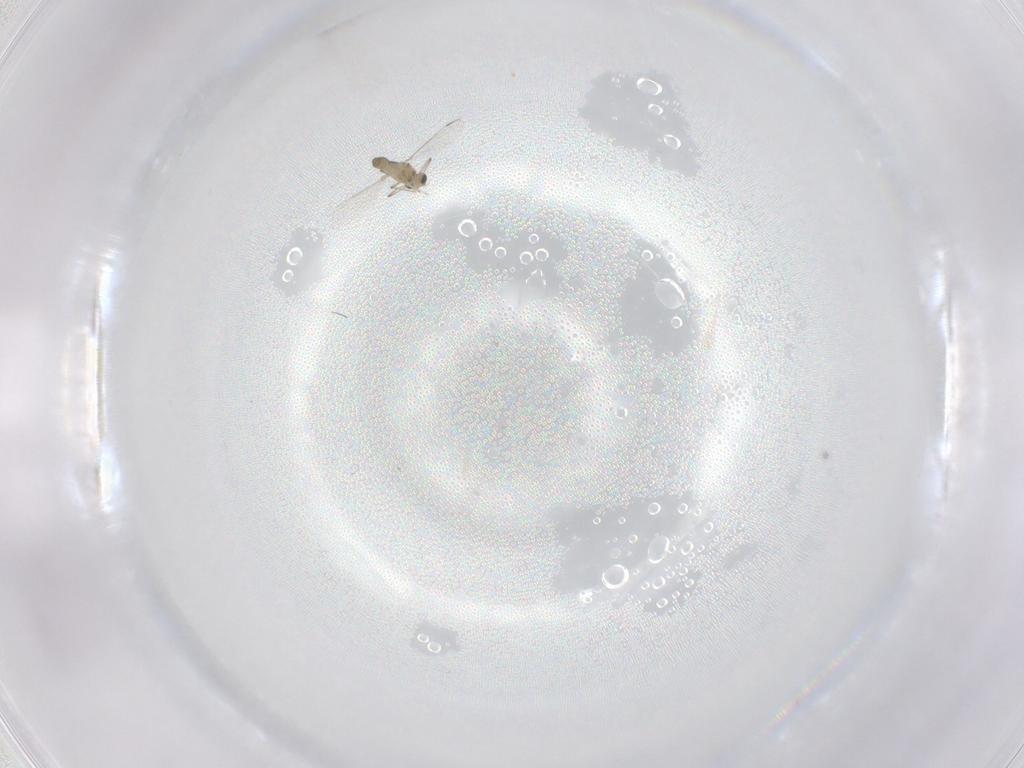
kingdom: Animalia
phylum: Arthropoda
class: Insecta
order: Diptera
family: Chironomidae
